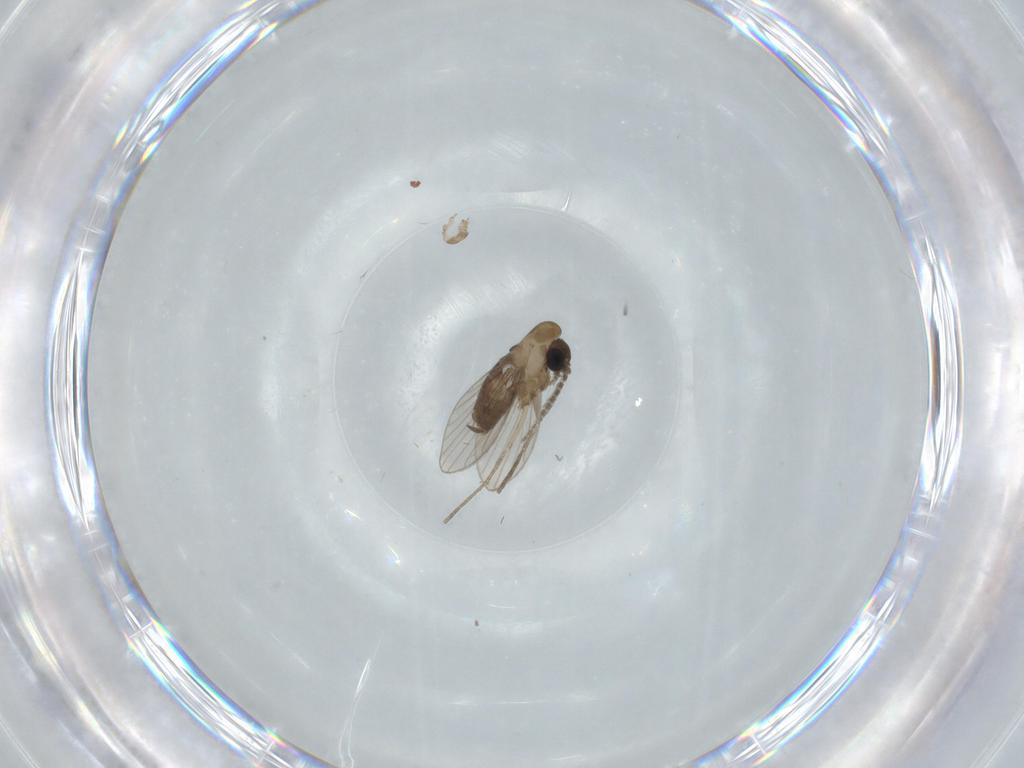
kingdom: Animalia
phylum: Arthropoda
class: Insecta
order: Diptera
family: Psychodidae
